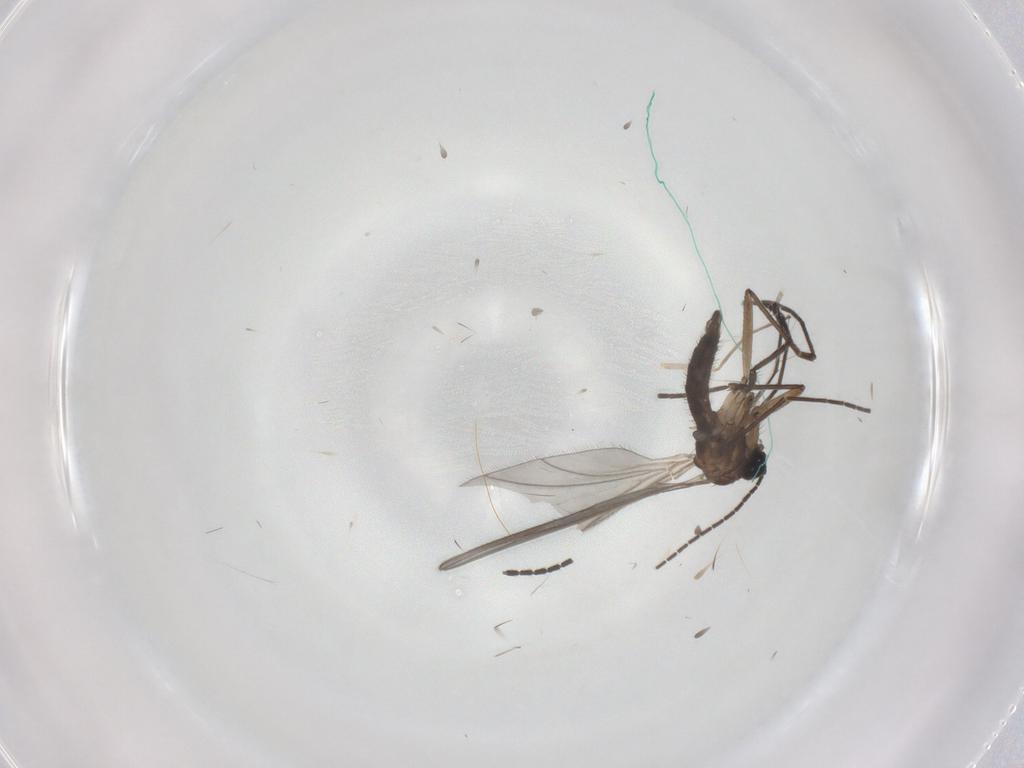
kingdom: Animalia
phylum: Arthropoda
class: Insecta
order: Diptera
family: Sciaridae
